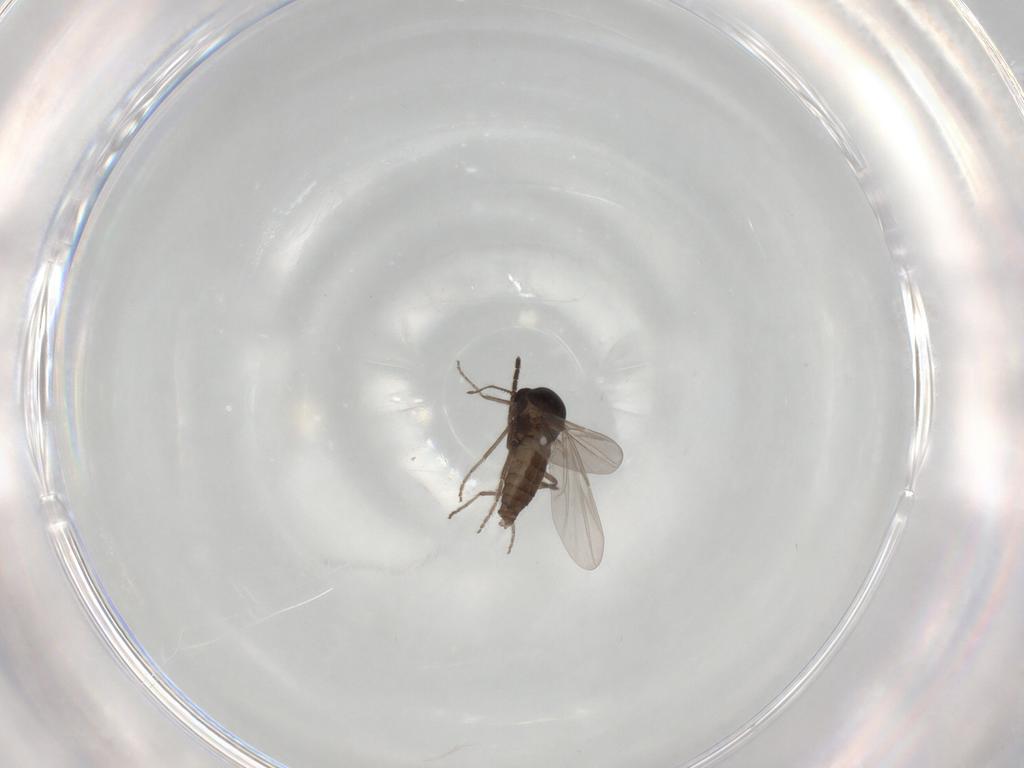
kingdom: Animalia
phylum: Arthropoda
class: Insecta
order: Diptera
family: Ceratopogonidae
